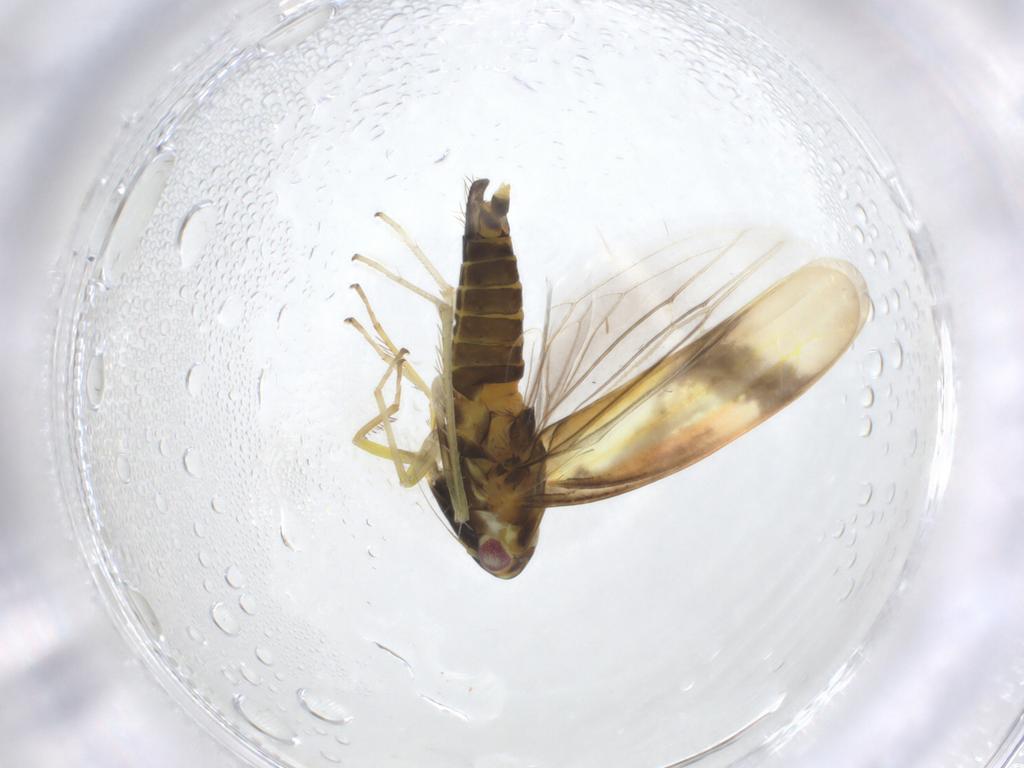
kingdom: Animalia
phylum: Arthropoda
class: Insecta
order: Hemiptera
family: Cicadellidae
